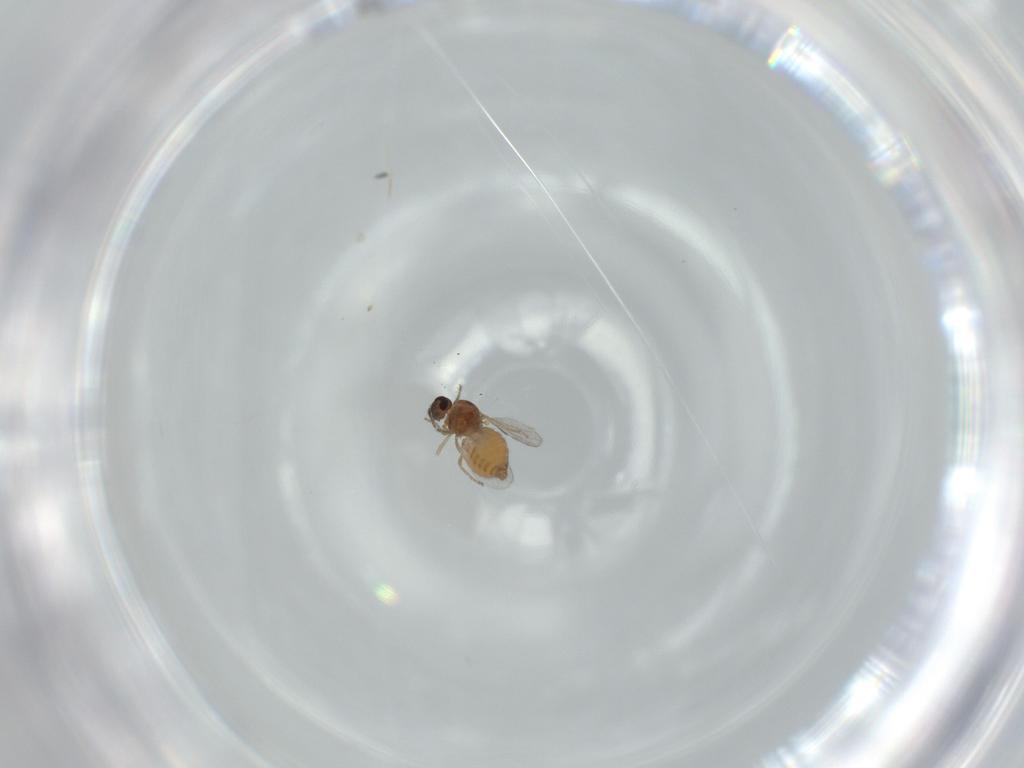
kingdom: Animalia
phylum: Arthropoda
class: Insecta
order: Diptera
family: Ceratopogonidae
